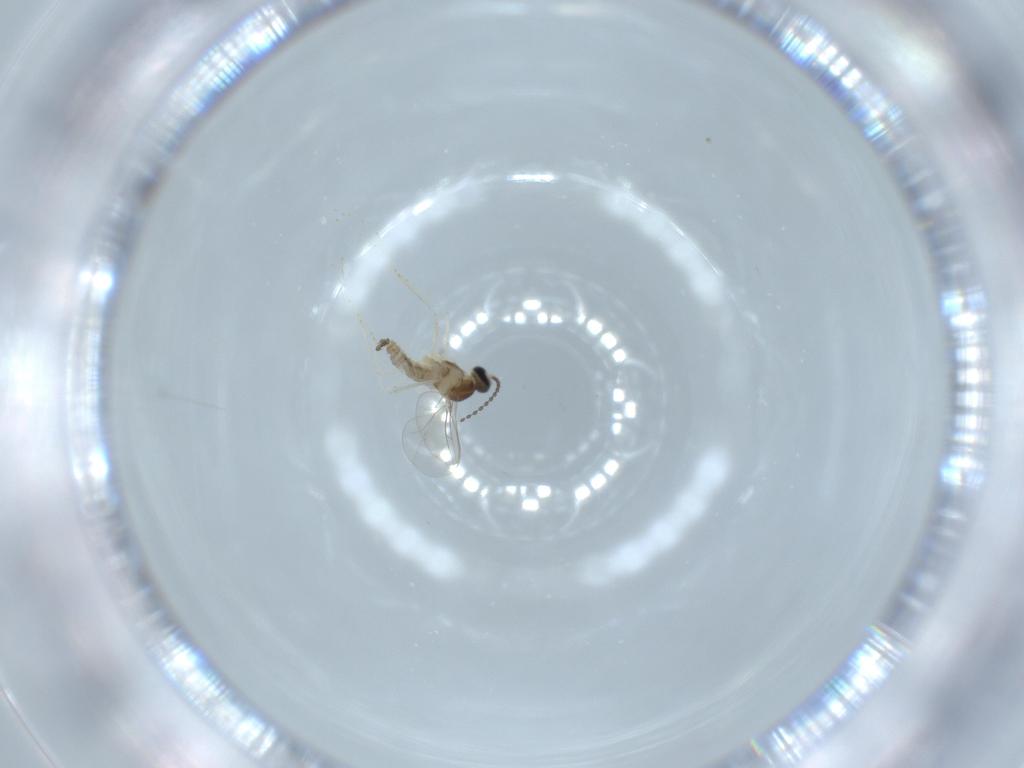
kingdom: Animalia
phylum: Arthropoda
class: Insecta
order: Diptera
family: Cecidomyiidae
